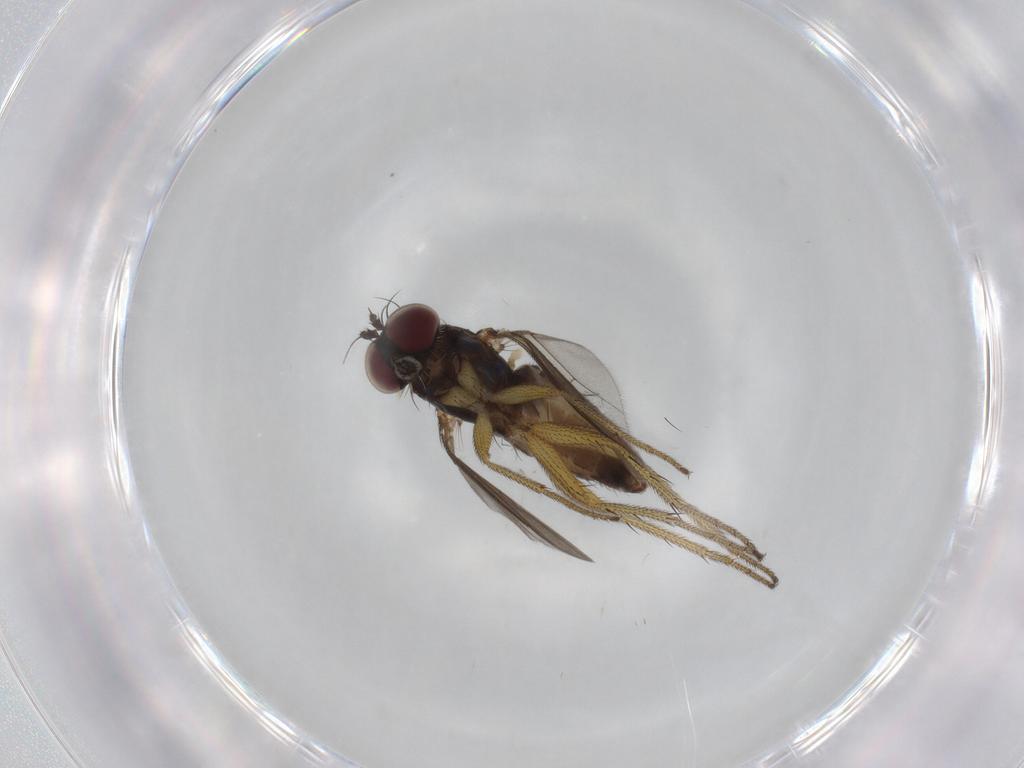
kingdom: Animalia
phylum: Arthropoda
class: Insecta
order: Diptera
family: Dolichopodidae
